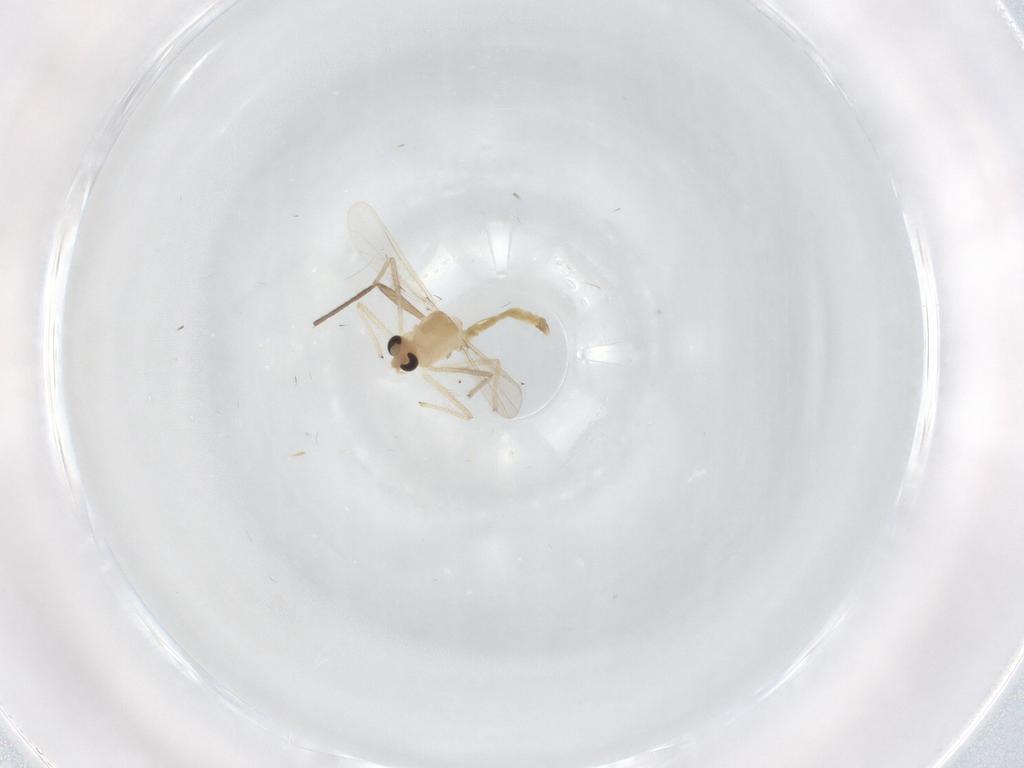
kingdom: Animalia
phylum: Arthropoda
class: Insecta
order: Diptera
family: Chironomidae
